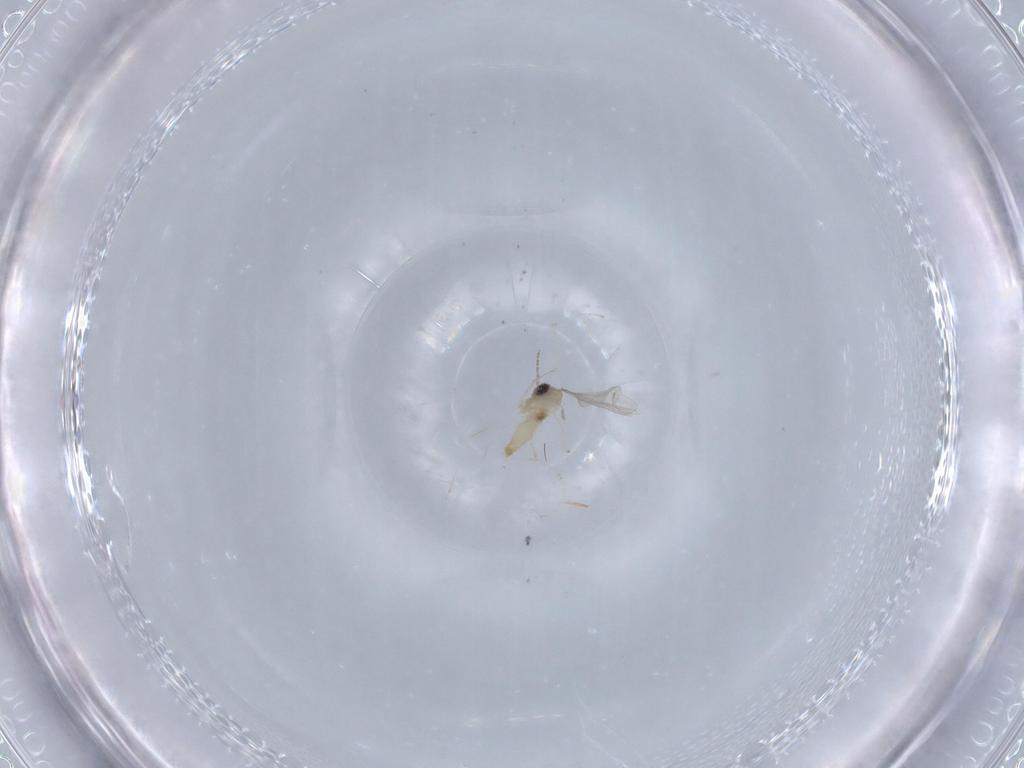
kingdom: Animalia
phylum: Arthropoda
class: Insecta
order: Diptera
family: Cecidomyiidae
